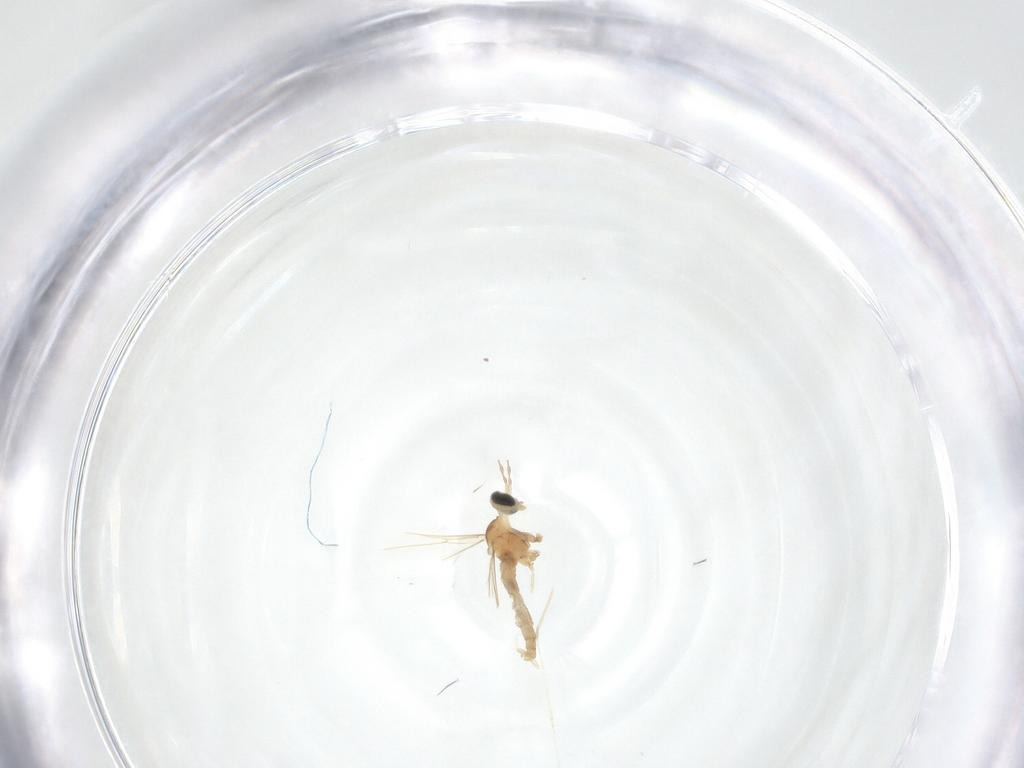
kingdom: Animalia
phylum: Arthropoda
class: Insecta
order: Diptera
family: Cecidomyiidae
